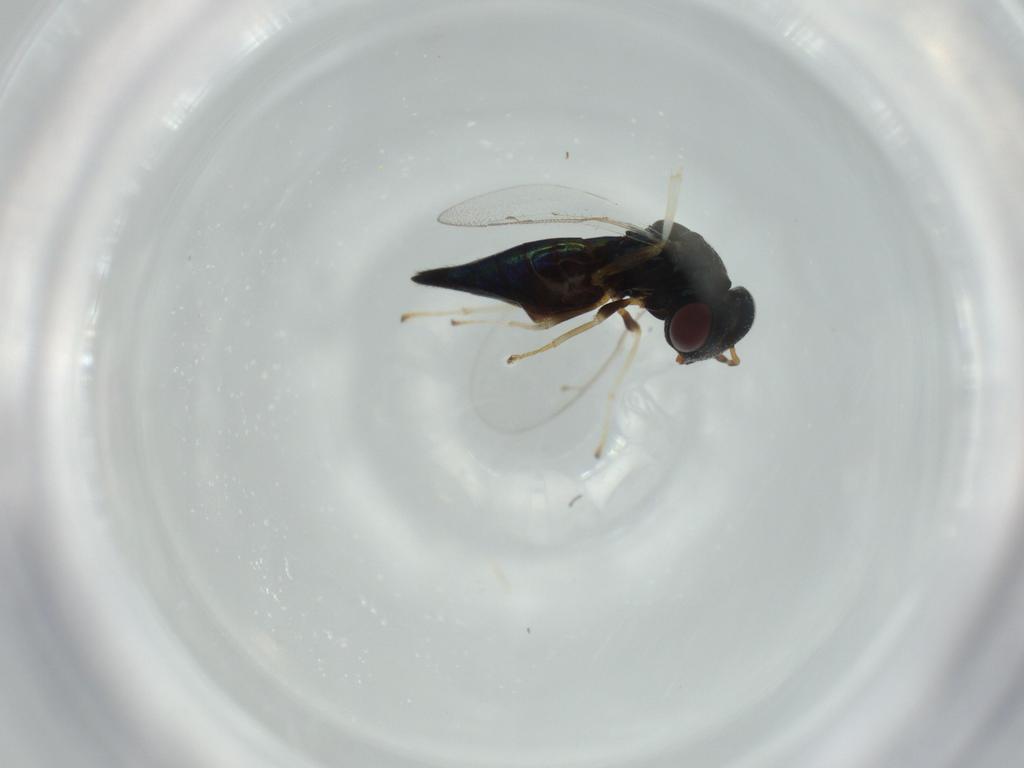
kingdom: Animalia
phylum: Arthropoda
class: Insecta
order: Hymenoptera
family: Pteromalidae
